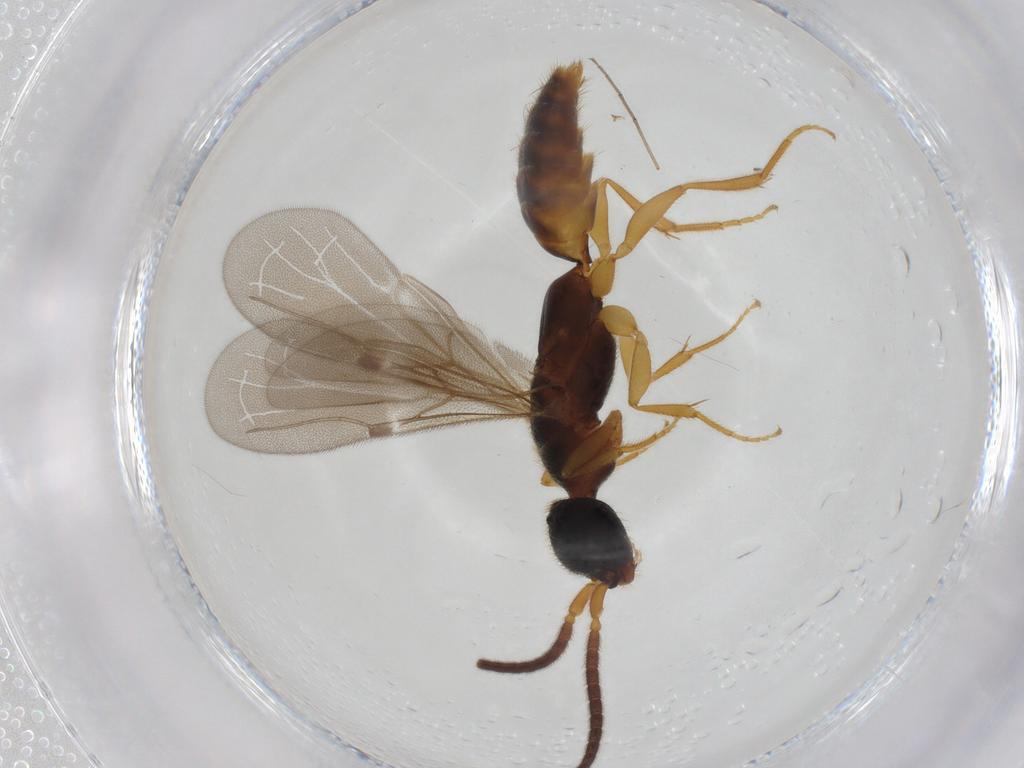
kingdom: Animalia
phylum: Arthropoda
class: Insecta
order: Hymenoptera
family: Bethylidae
